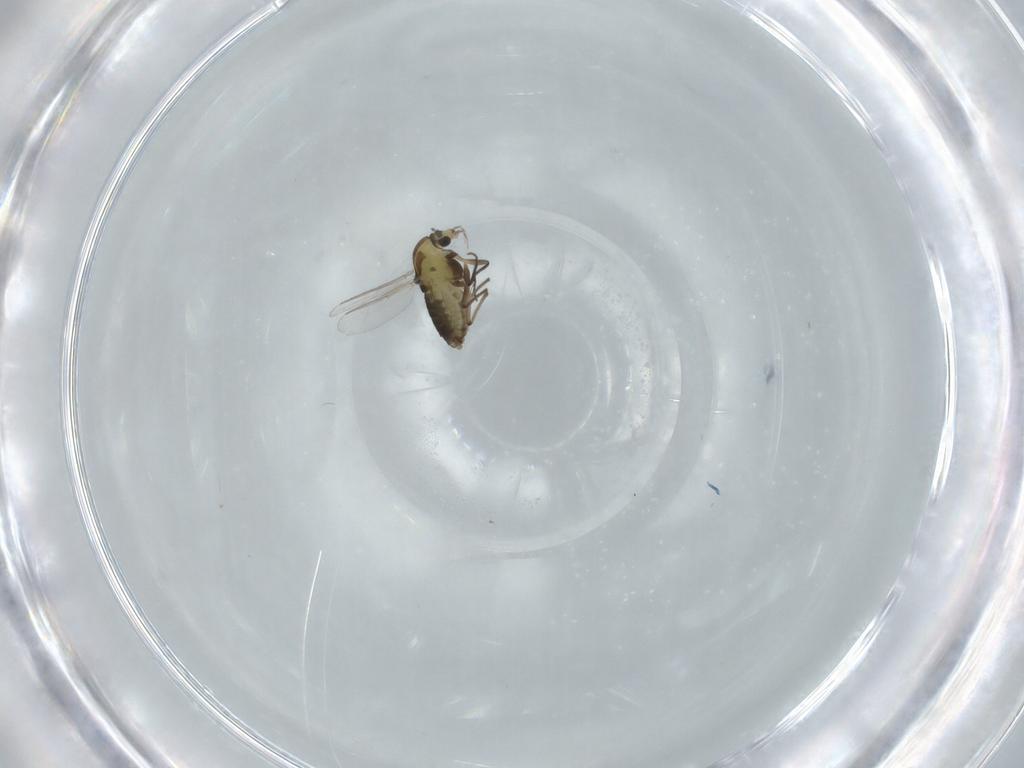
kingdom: Animalia
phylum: Arthropoda
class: Insecta
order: Diptera
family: Chironomidae
